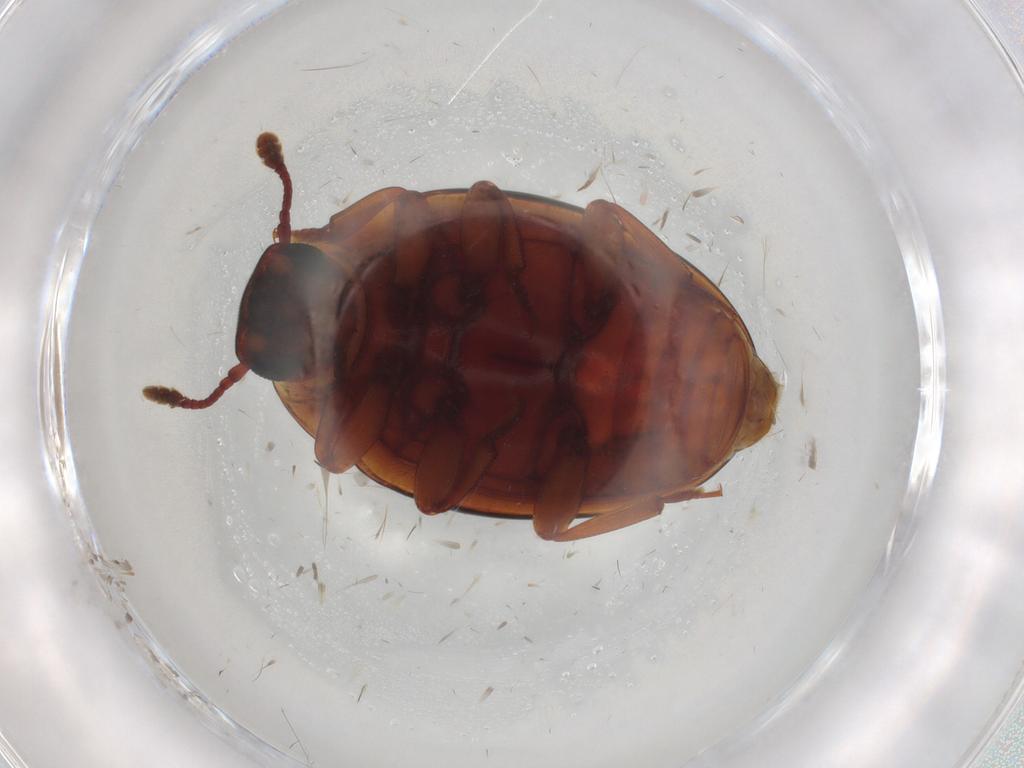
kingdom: Animalia
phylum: Arthropoda
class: Insecta
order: Coleoptera
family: Zopheridae
